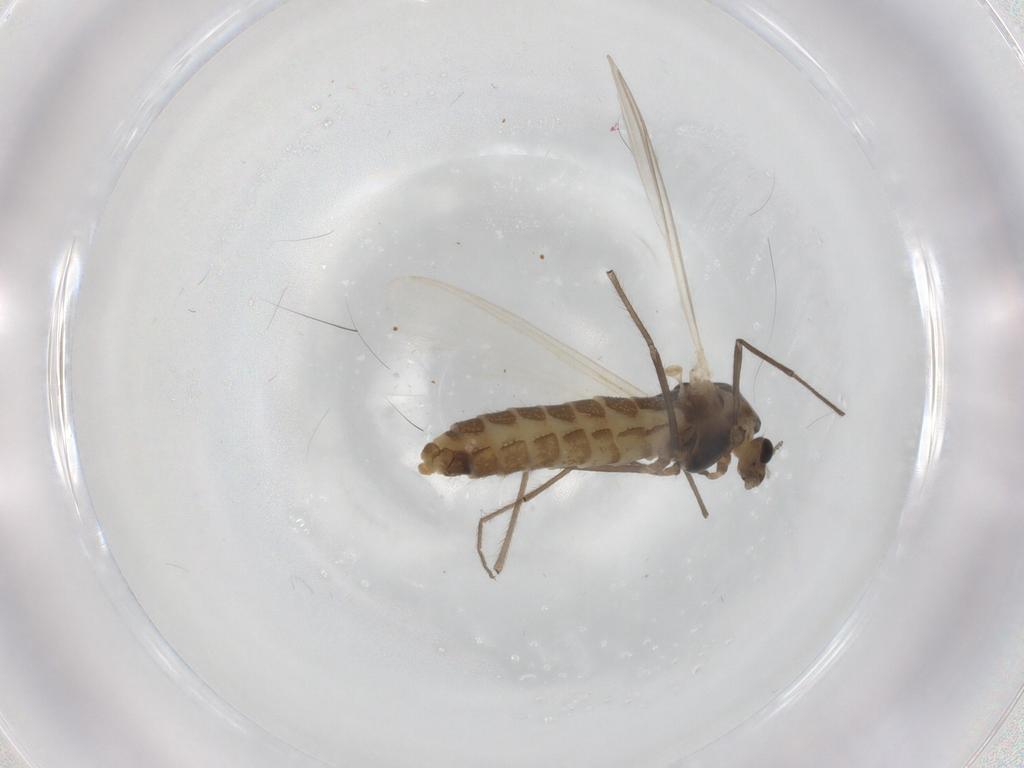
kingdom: Animalia
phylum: Arthropoda
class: Insecta
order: Diptera
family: Chironomidae
